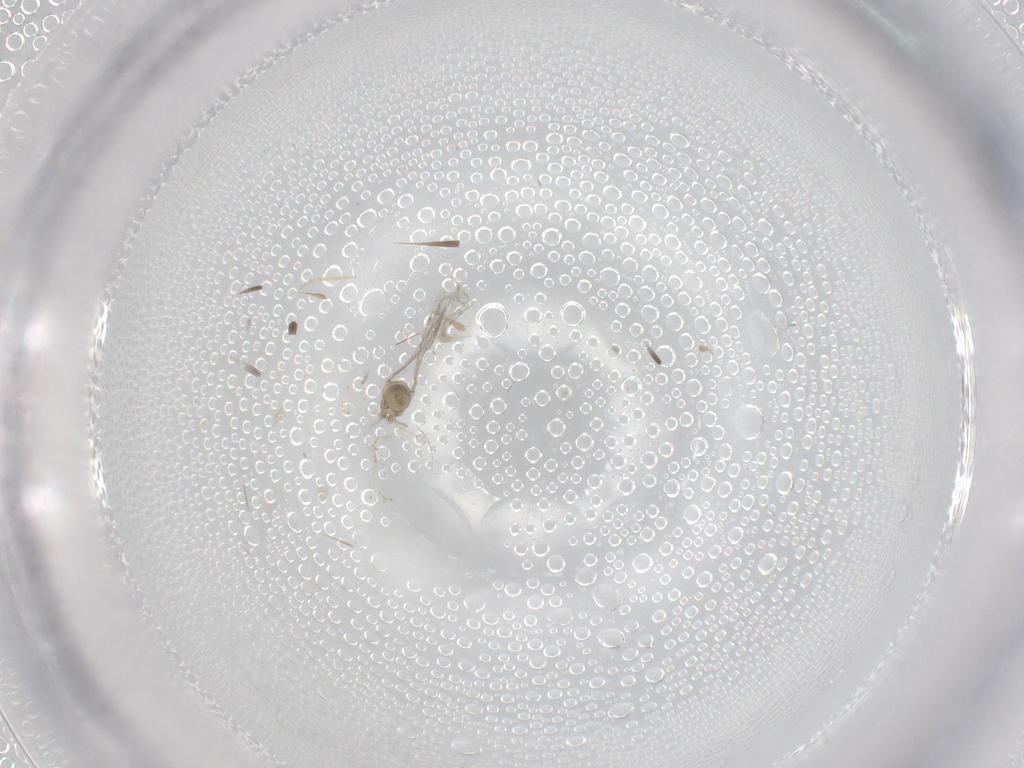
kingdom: Animalia
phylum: Arthropoda
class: Insecta
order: Diptera
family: Cecidomyiidae
